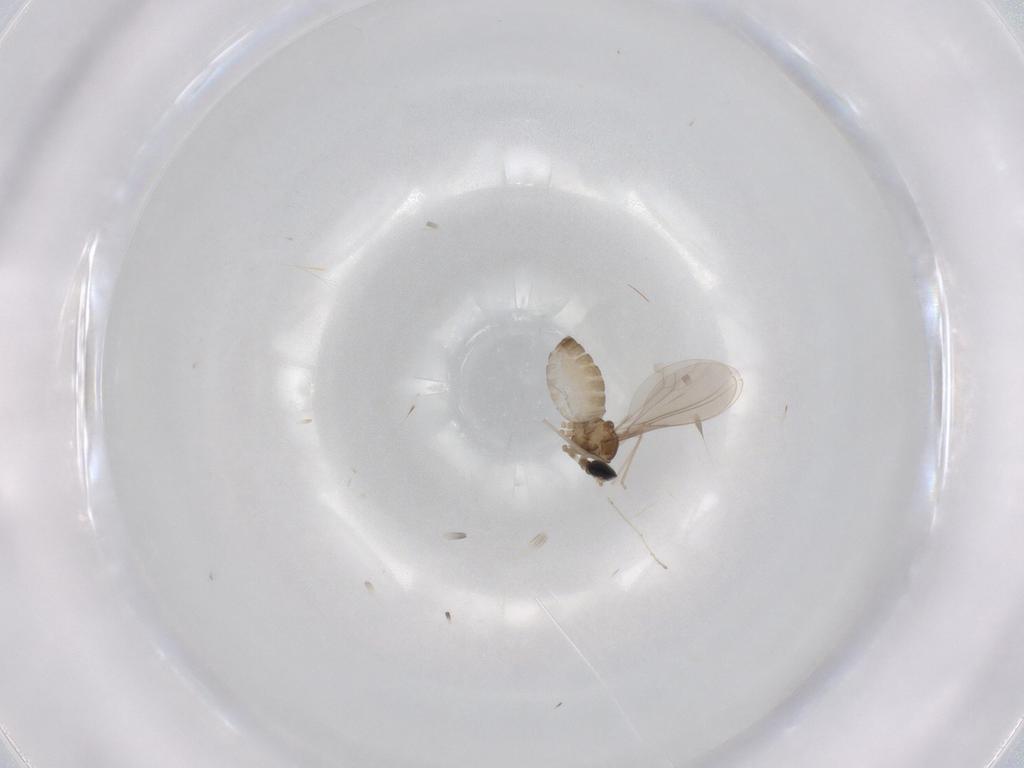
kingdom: Animalia
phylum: Arthropoda
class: Insecta
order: Diptera
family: Cecidomyiidae
